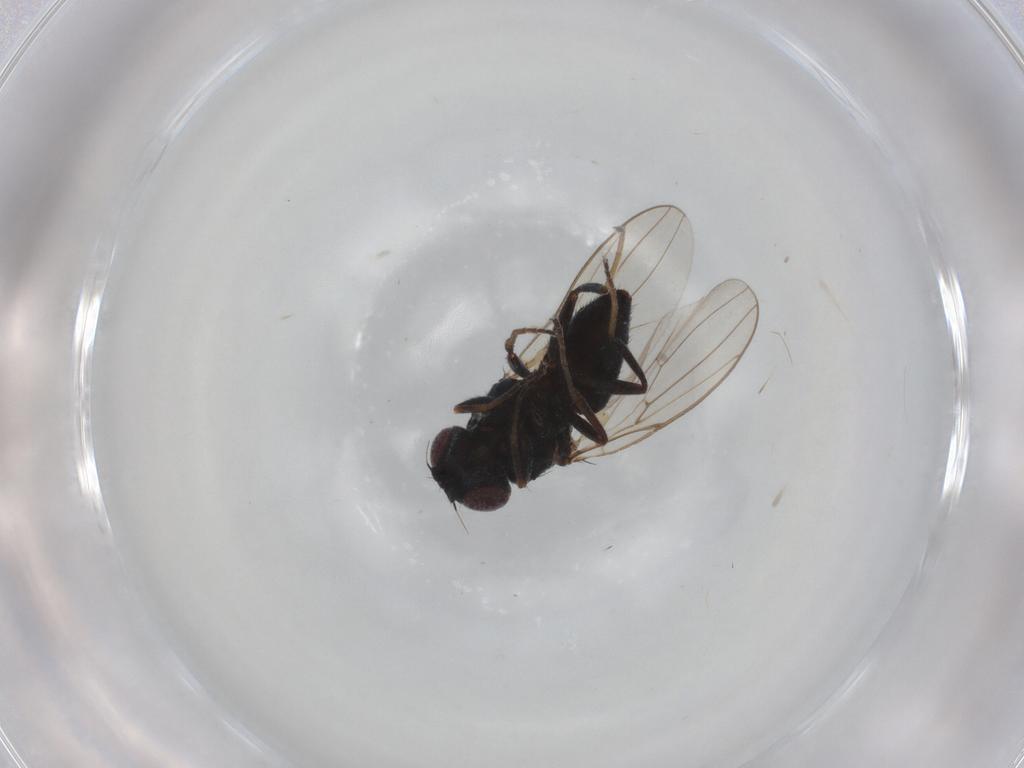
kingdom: Animalia
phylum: Arthropoda
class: Insecta
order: Diptera
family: Chloropidae
